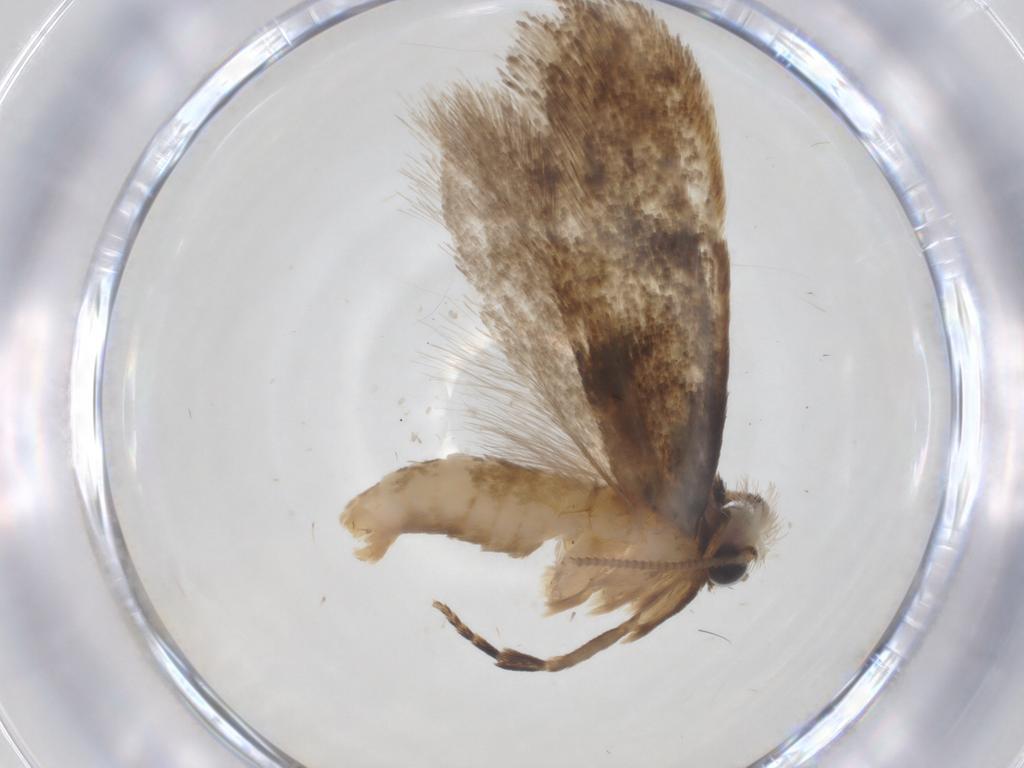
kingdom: Animalia
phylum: Arthropoda
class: Insecta
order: Lepidoptera
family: Tineidae
